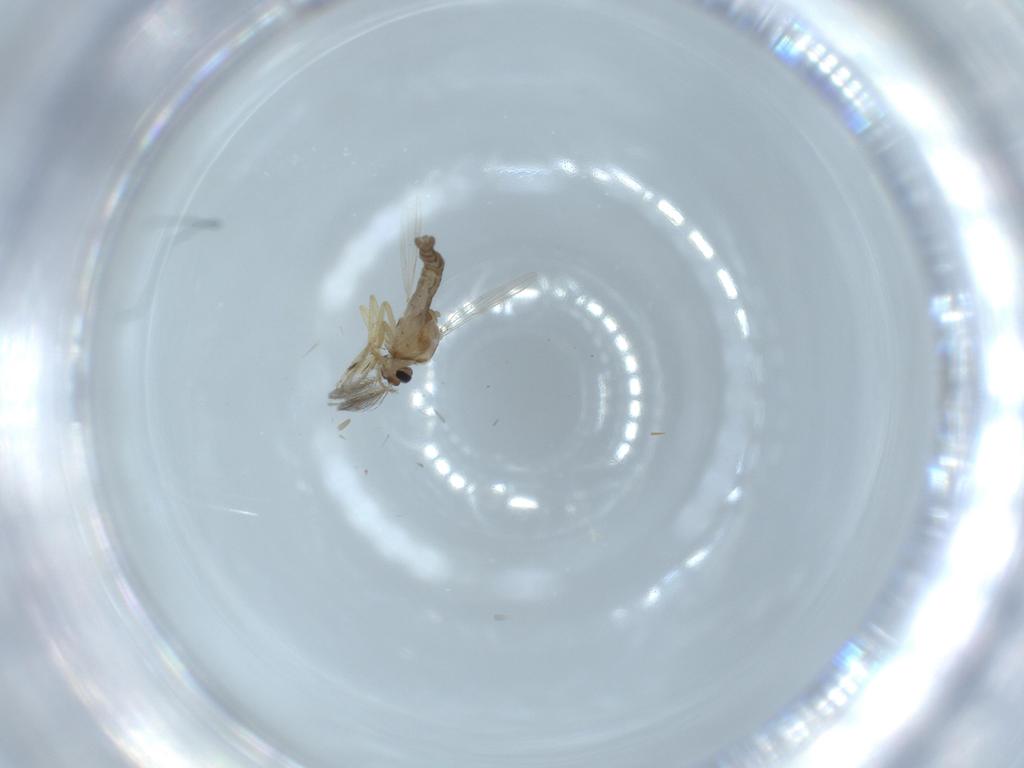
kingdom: Animalia
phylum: Arthropoda
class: Insecta
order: Diptera
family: Ceratopogonidae
